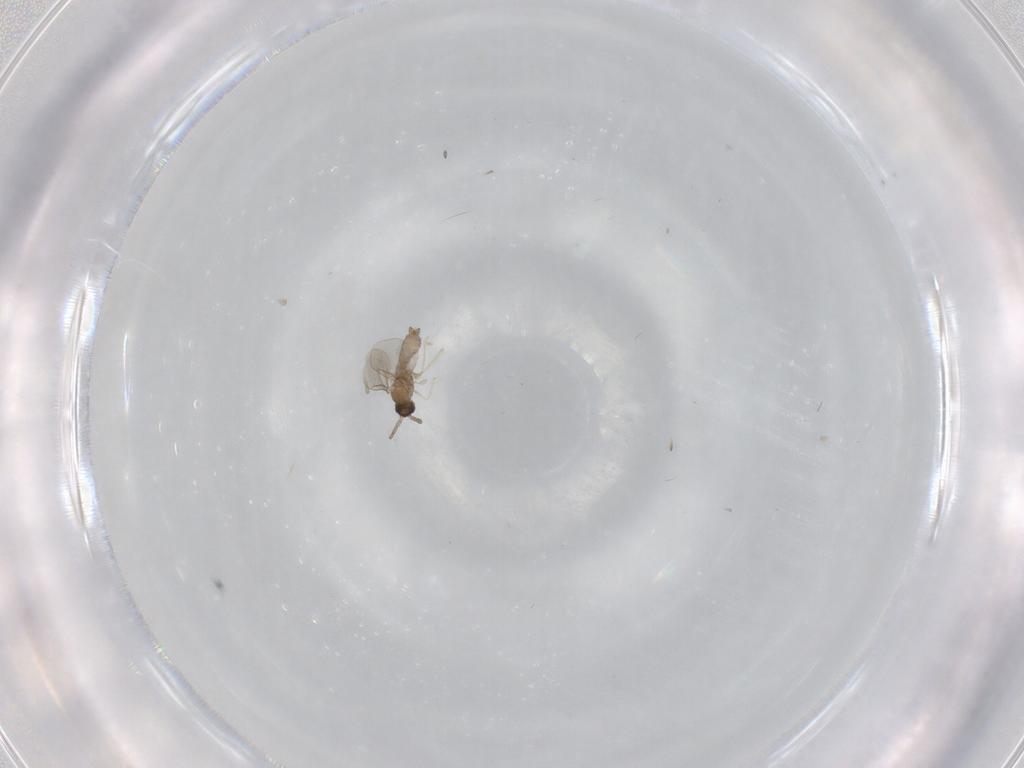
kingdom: Animalia
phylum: Arthropoda
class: Insecta
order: Diptera
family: Cecidomyiidae
